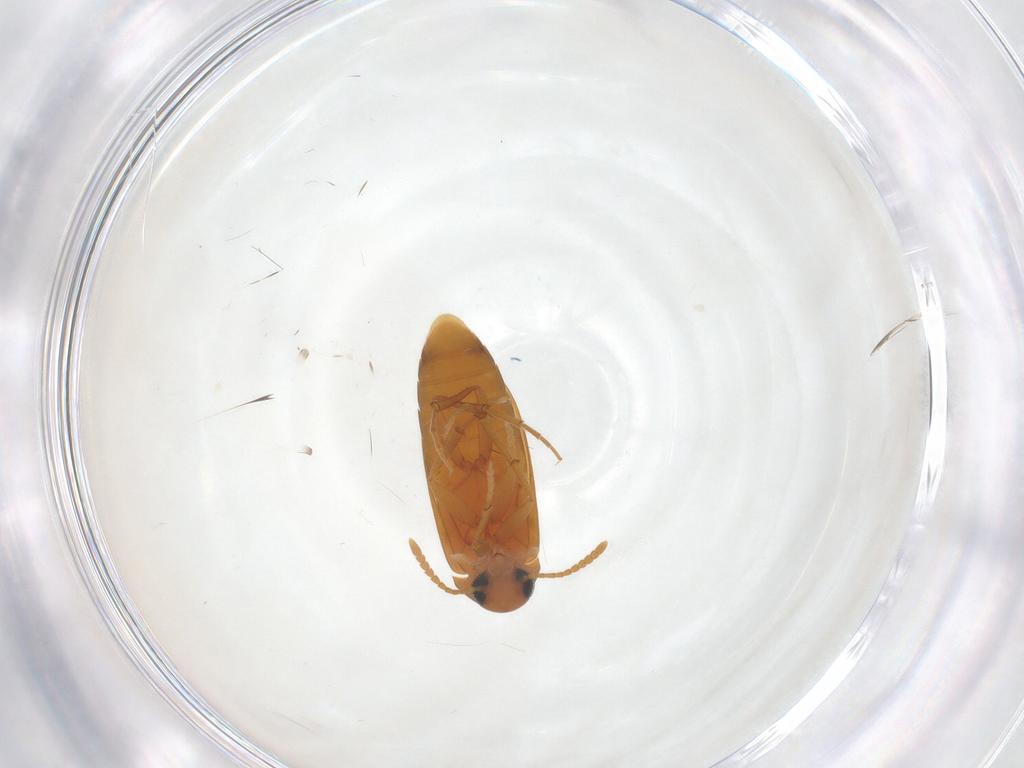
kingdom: Animalia
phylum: Arthropoda
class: Insecta
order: Coleoptera
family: Scraptiidae
